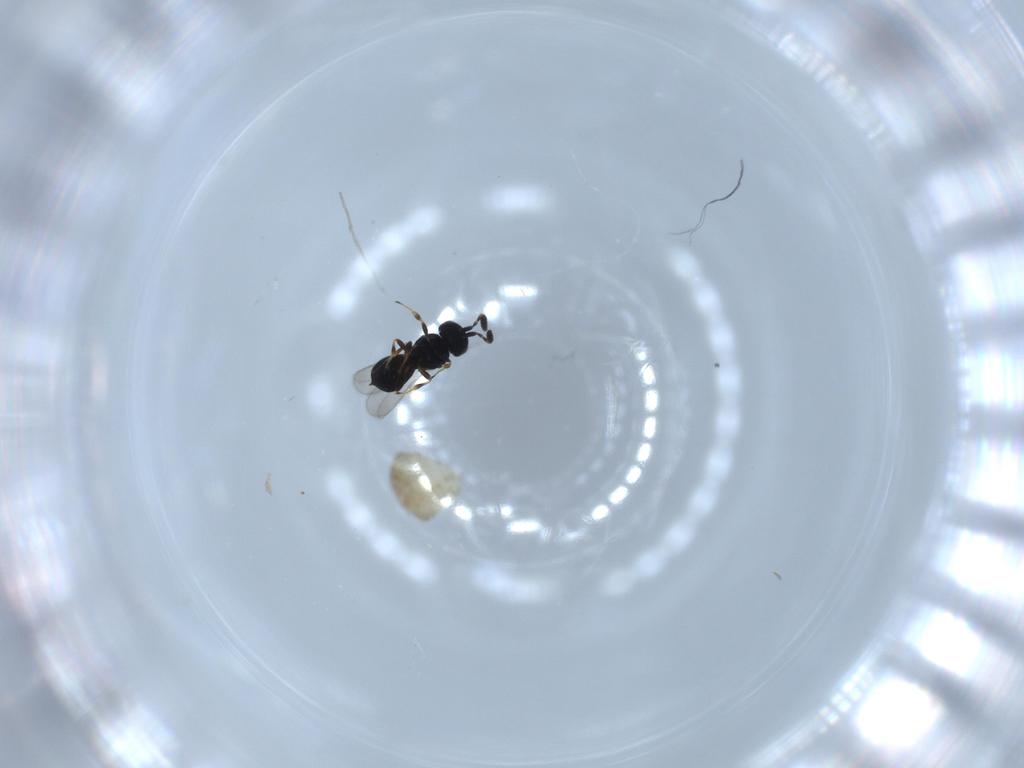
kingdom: Animalia
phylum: Arthropoda
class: Insecta
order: Hymenoptera
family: Scelionidae
